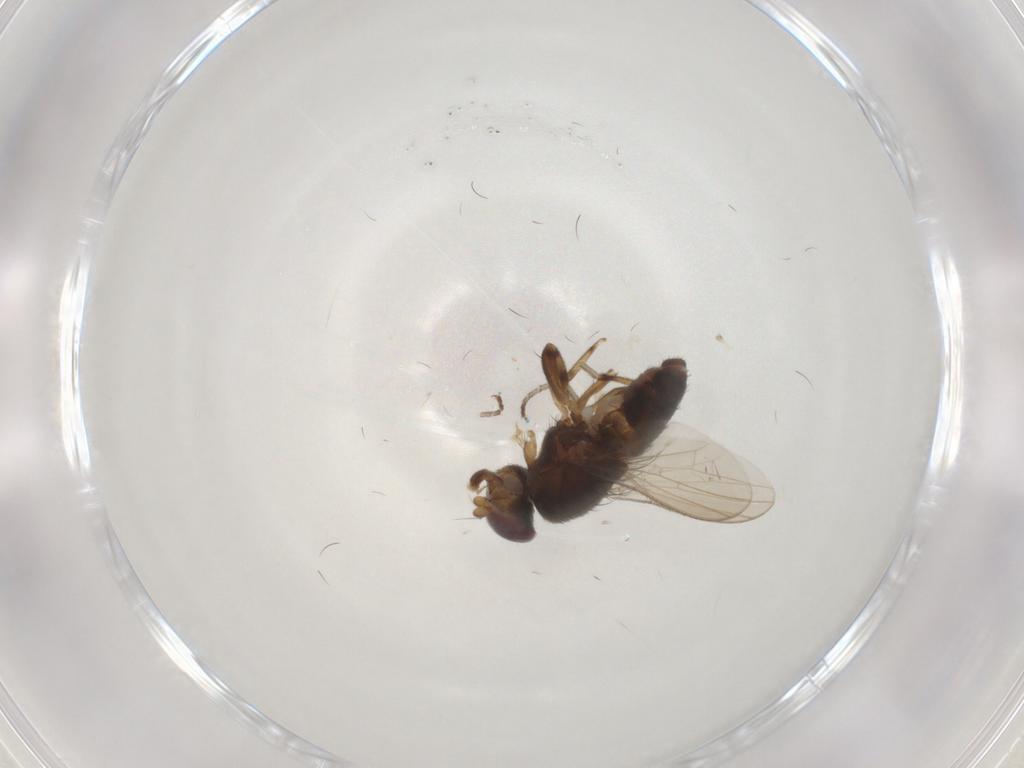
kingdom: Animalia
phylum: Arthropoda
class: Insecta
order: Diptera
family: Heleomyzidae
